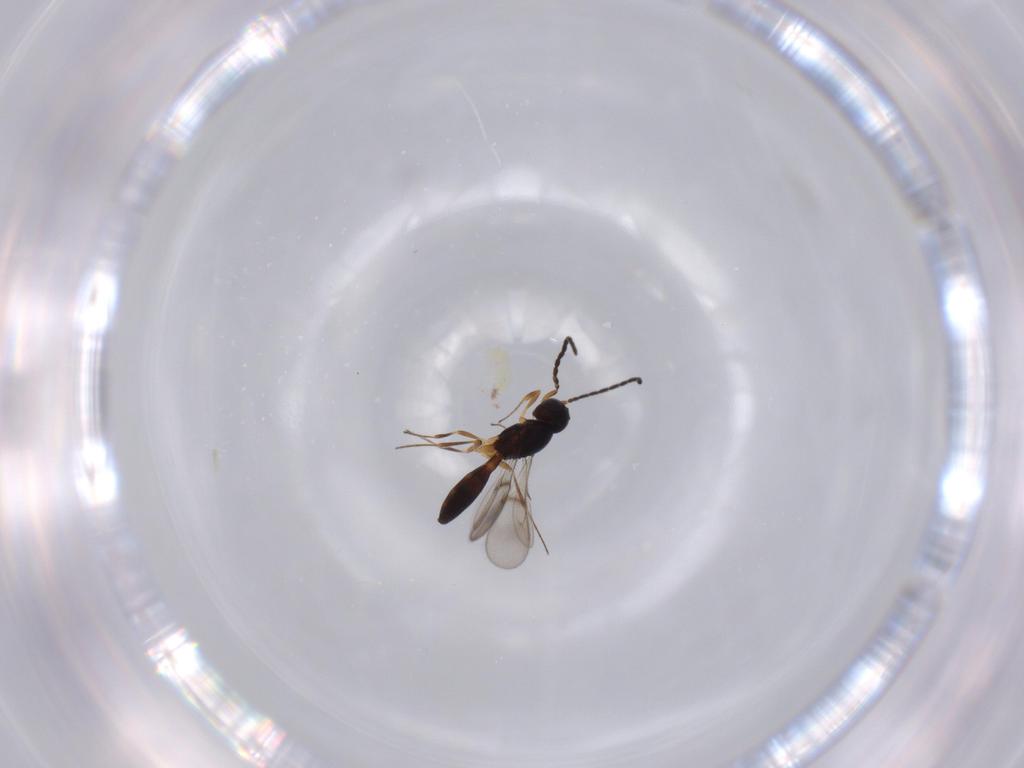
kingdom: Animalia
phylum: Arthropoda
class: Insecta
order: Hymenoptera
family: Scelionidae
